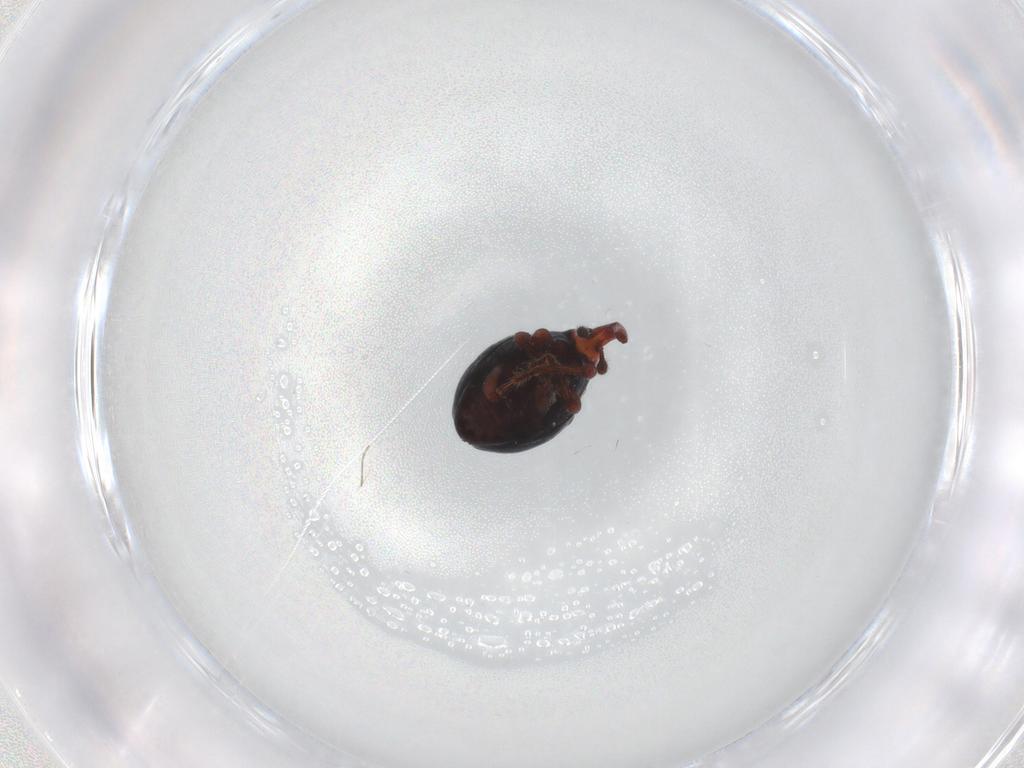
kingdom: Animalia
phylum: Arthropoda
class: Insecta
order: Coleoptera
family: Curculionidae
